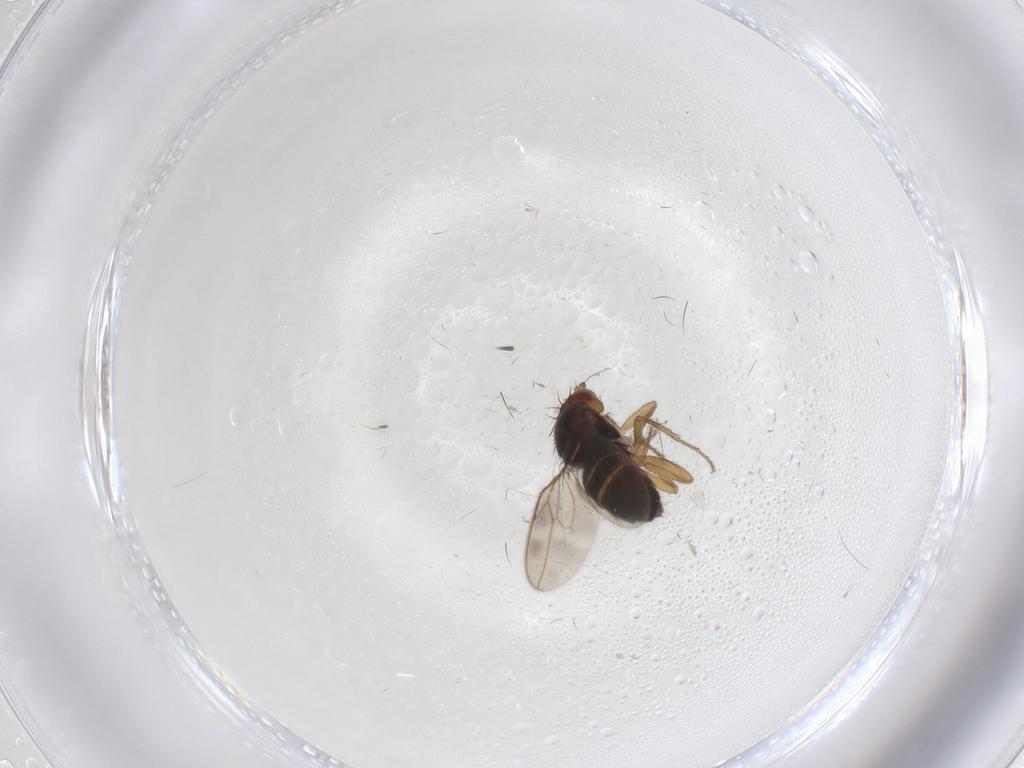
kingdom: Animalia
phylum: Arthropoda
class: Insecta
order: Diptera
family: Sphaeroceridae
